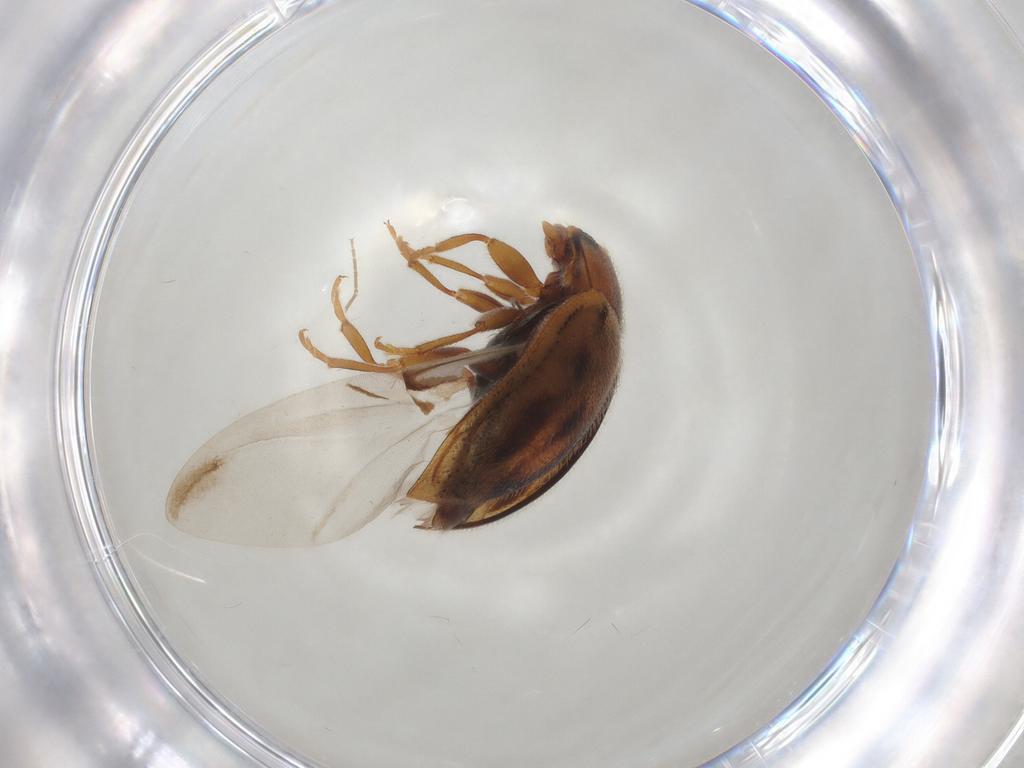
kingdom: Animalia
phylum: Arthropoda
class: Insecta
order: Coleoptera
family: Coccinellidae
